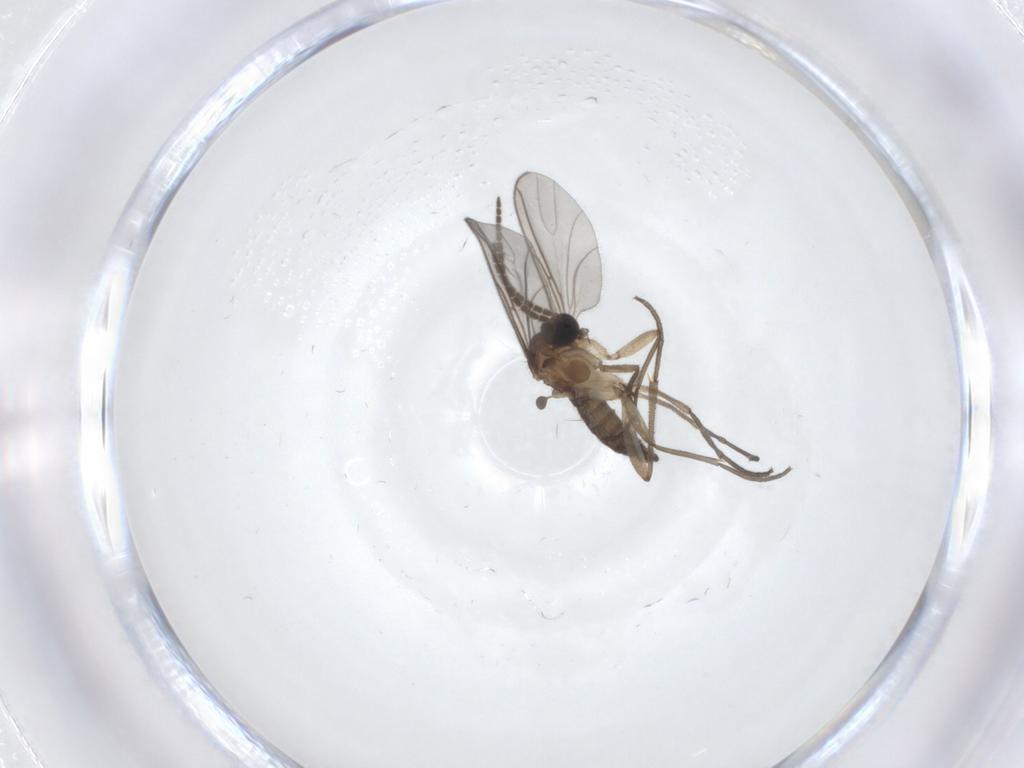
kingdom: Animalia
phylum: Arthropoda
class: Insecta
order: Diptera
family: Sciaridae
